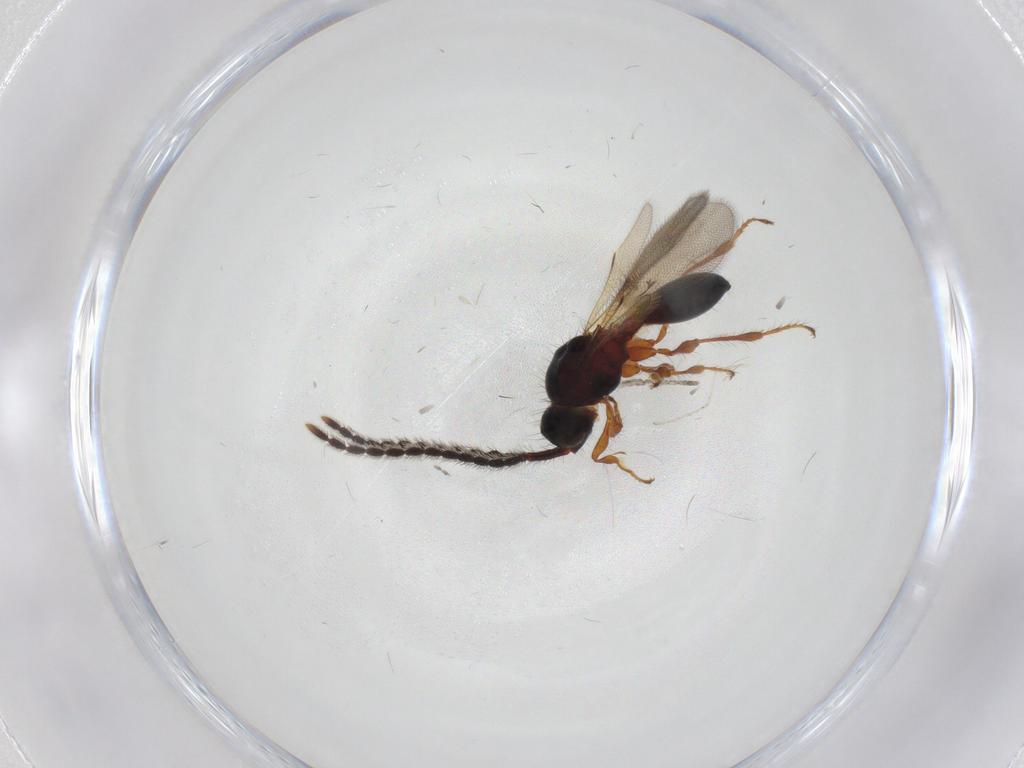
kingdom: Animalia
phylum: Arthropoda
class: Insecta
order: Hymenoptera
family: Diapriidae
